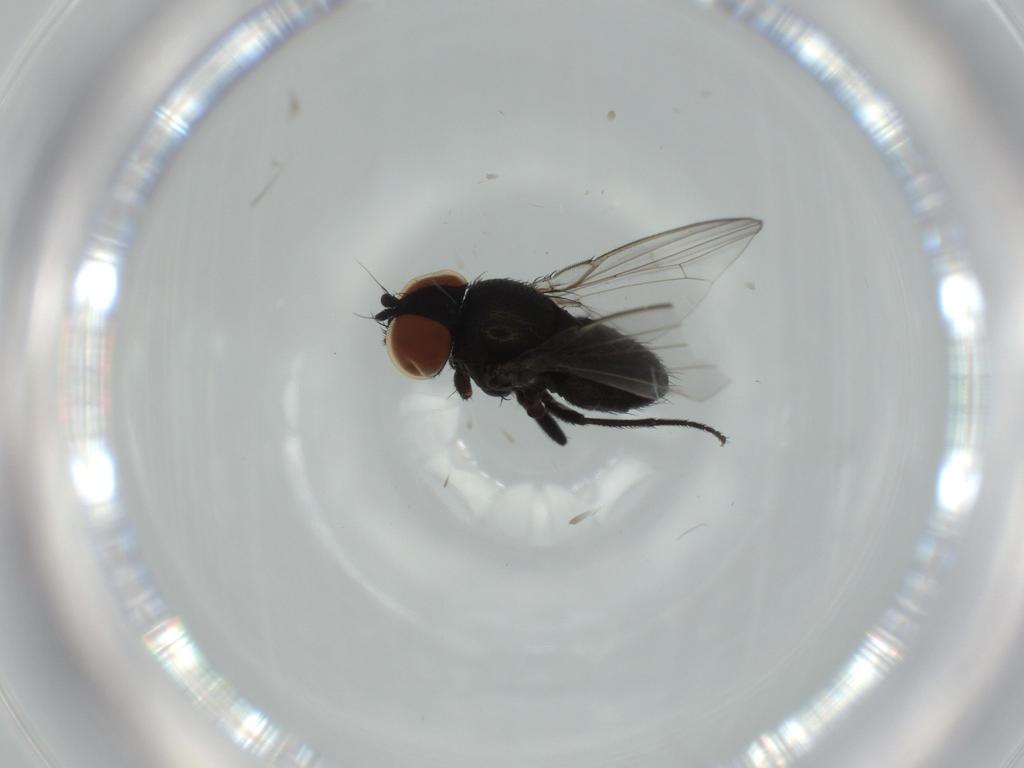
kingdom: Animalia
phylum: Arthropoda
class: Insecta
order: Diptera
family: Milichiidae
